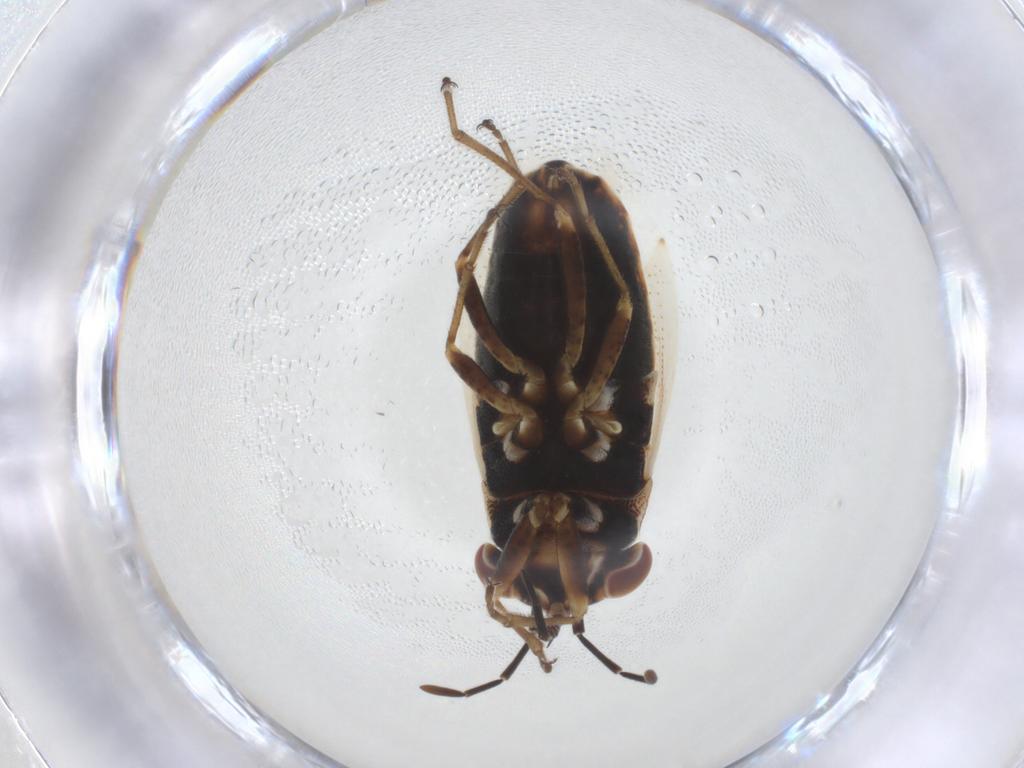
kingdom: Animalia
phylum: Arthropoda
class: Insecta
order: Hemiptera
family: Geocoridae
